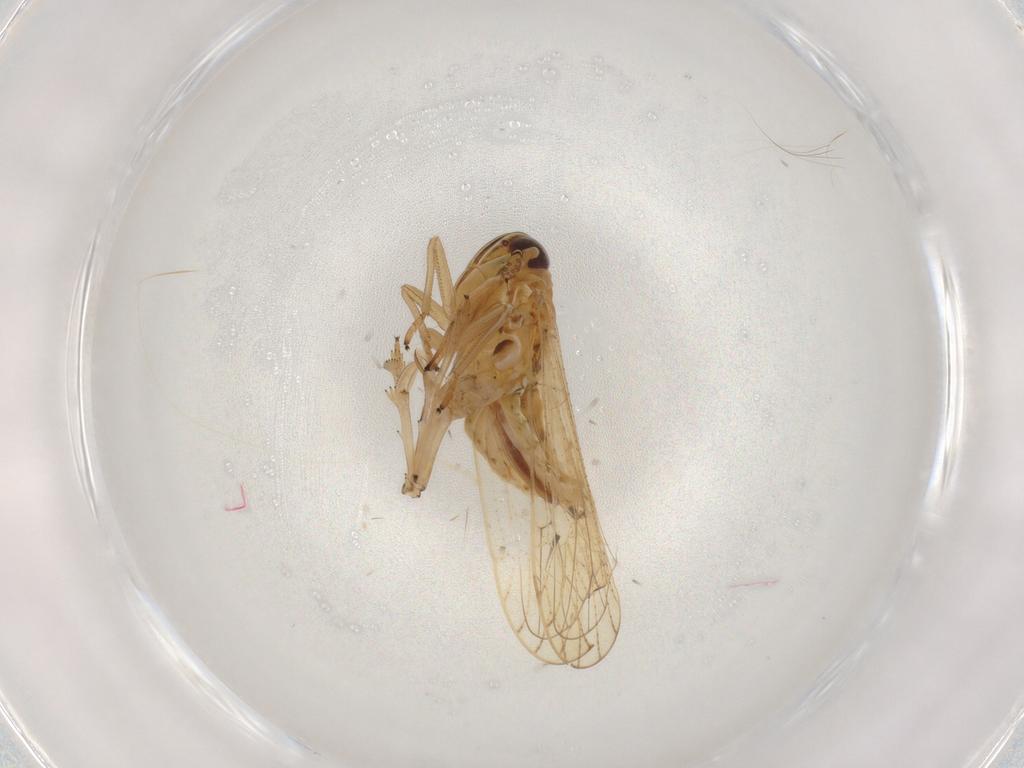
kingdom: Animalia
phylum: Arthropoda
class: Insecta
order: Hemiptera
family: Delphacidae
